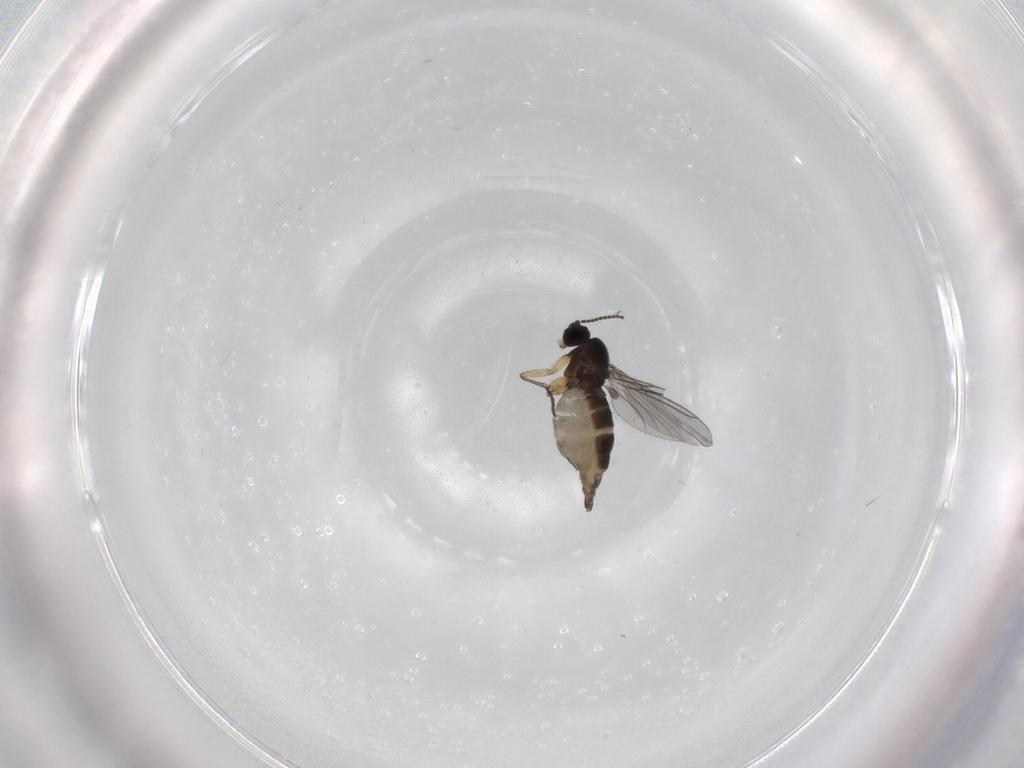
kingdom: Animalia
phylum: Arthropoda
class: Insecta
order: Diptera
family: Sciaridae
